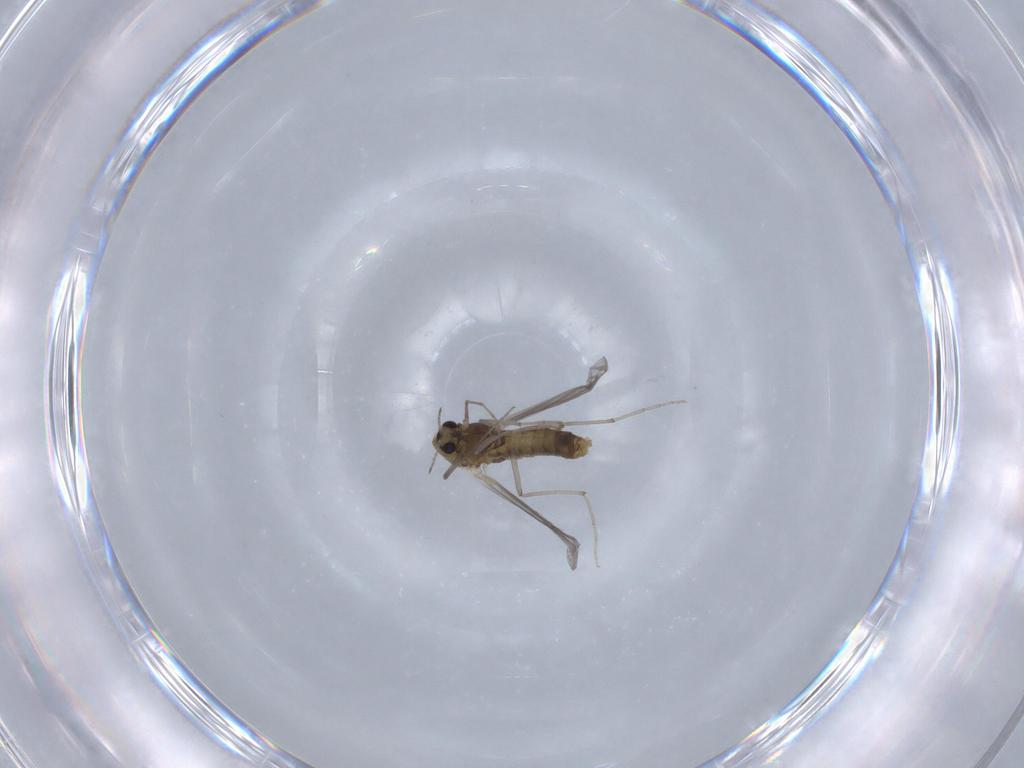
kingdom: Animalia
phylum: Arthropoda
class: Insecta
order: Diptera
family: Chironomidae
